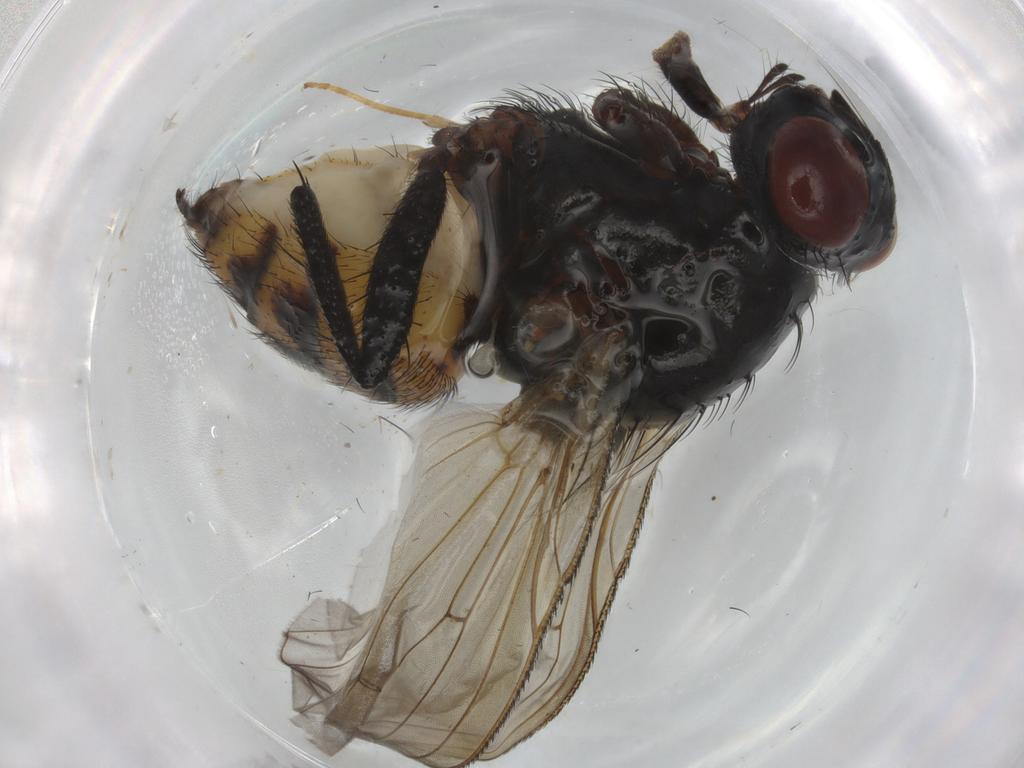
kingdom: Animalia
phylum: Arthropoda
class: Insecta
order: Diptera
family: Anthomyiidae
